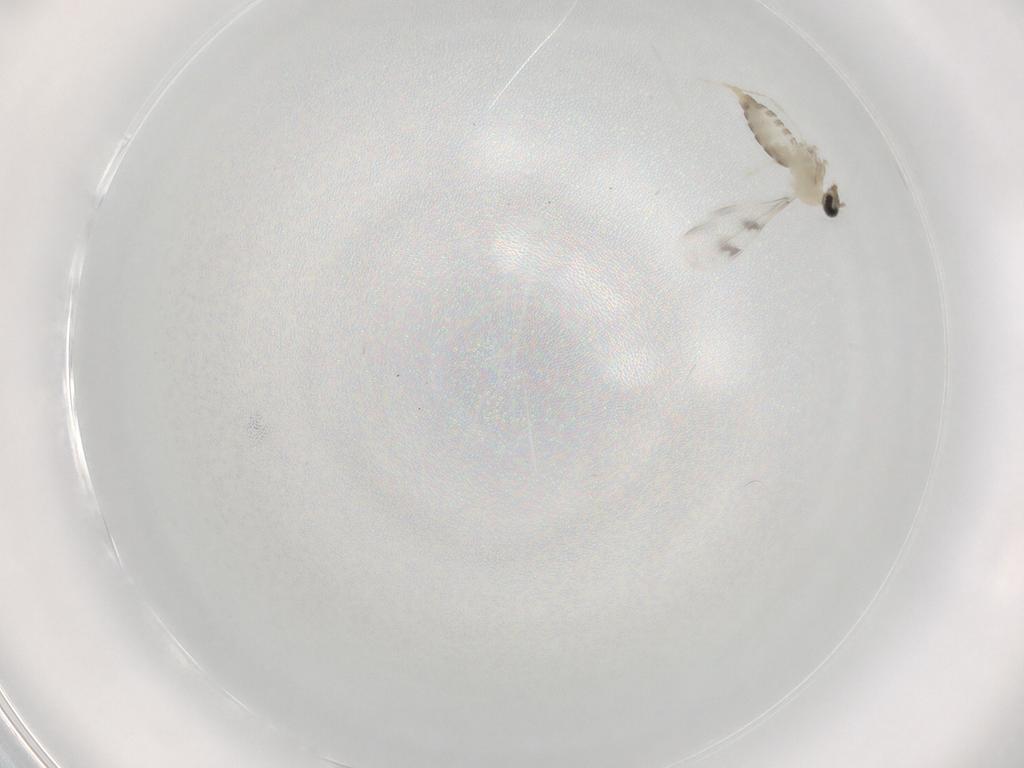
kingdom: Animalia
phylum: Arthropoda
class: Insecta
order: Diptera
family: Cecidomyiidae
